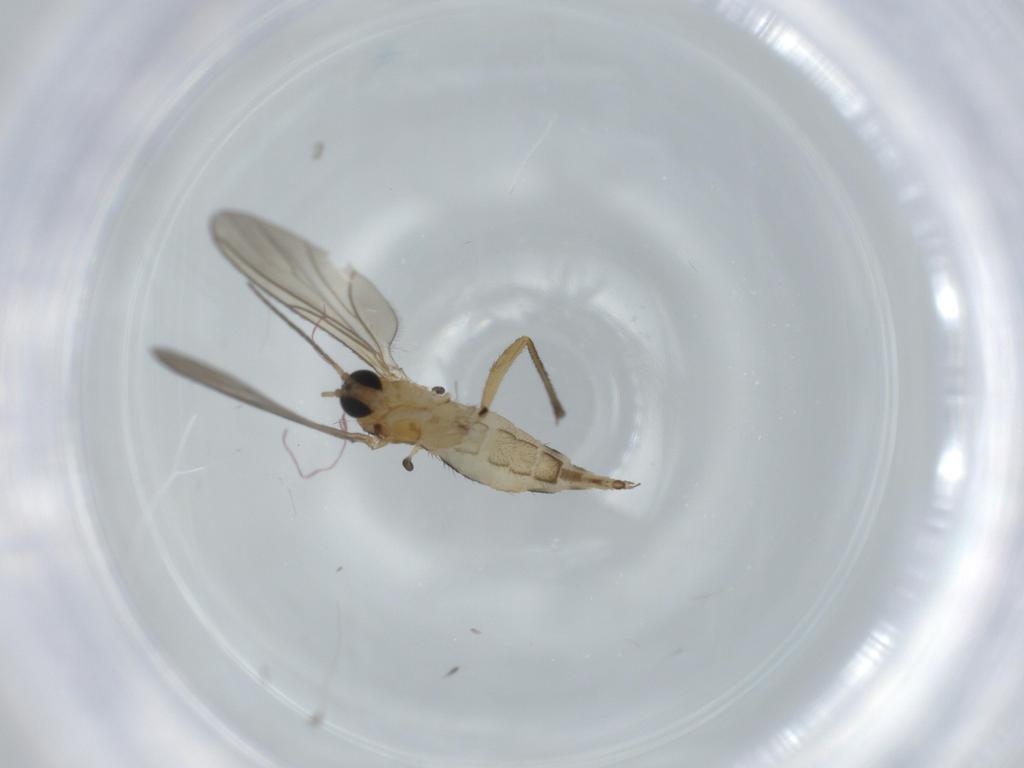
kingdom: Animalia
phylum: Arthropoda
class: Insecta
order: Diptera
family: Sciaridae
